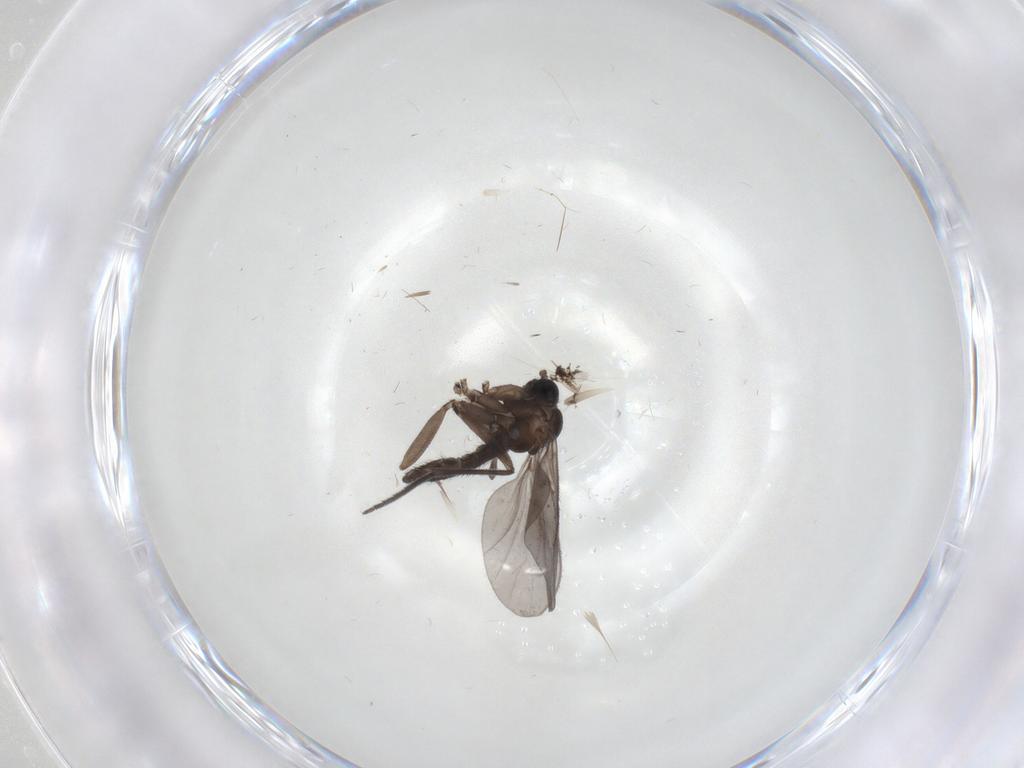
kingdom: Animalia
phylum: Arthropoda
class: Insecta
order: Diptera
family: Sciaridae
